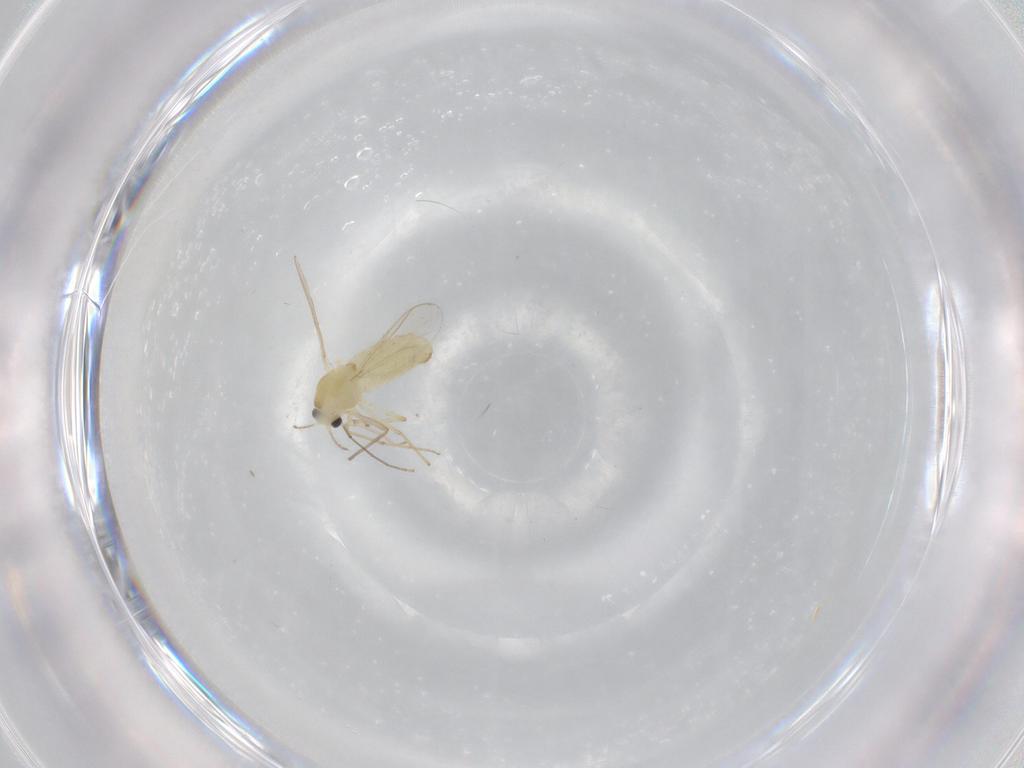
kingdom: Animalia
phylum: Arthropoda
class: Insecta
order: Diptera
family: Chironomidae
